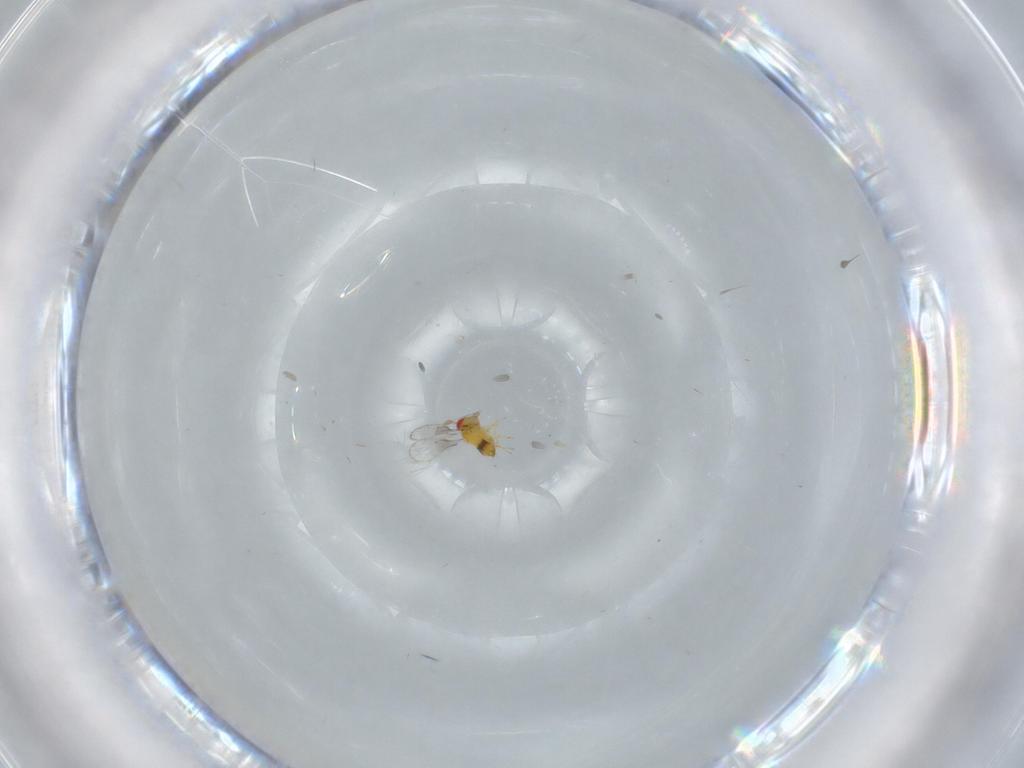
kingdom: Animalia
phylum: Arthropoda
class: Insecta
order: Hymenoptera
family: Trichogrammatidae
